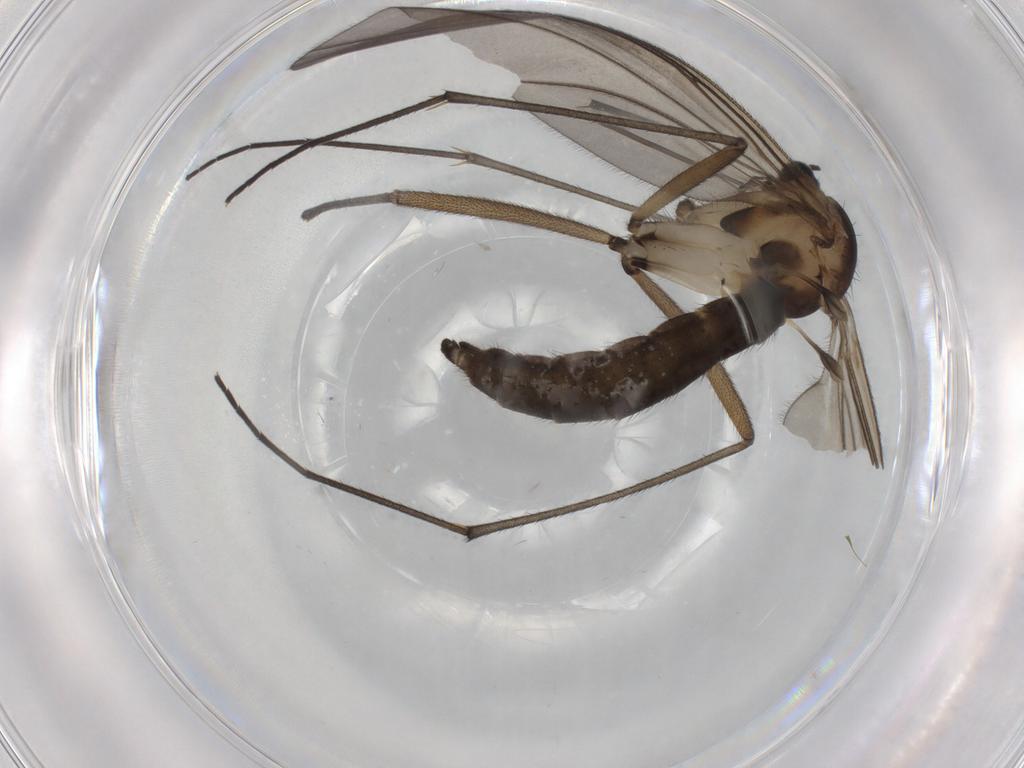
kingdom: Animalia
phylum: Arthropoda
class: Insecta
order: Diptera
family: Sciaridae
